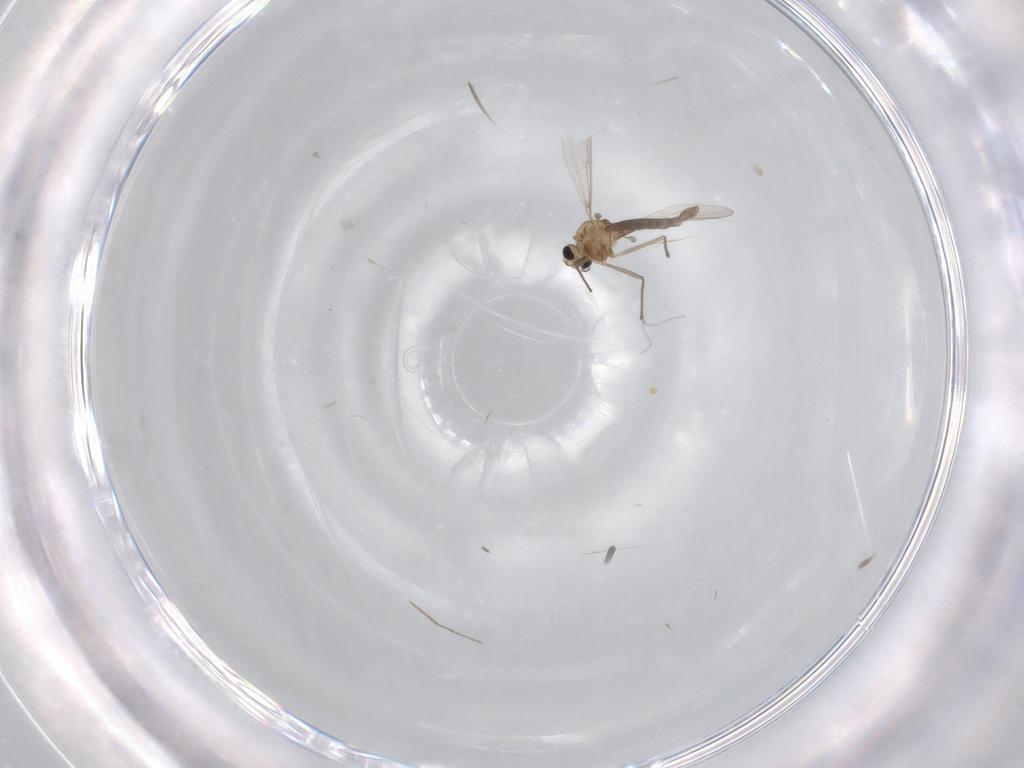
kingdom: Animalia
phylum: Arthropoda
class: Insecta
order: Diptera
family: Chironomidae
